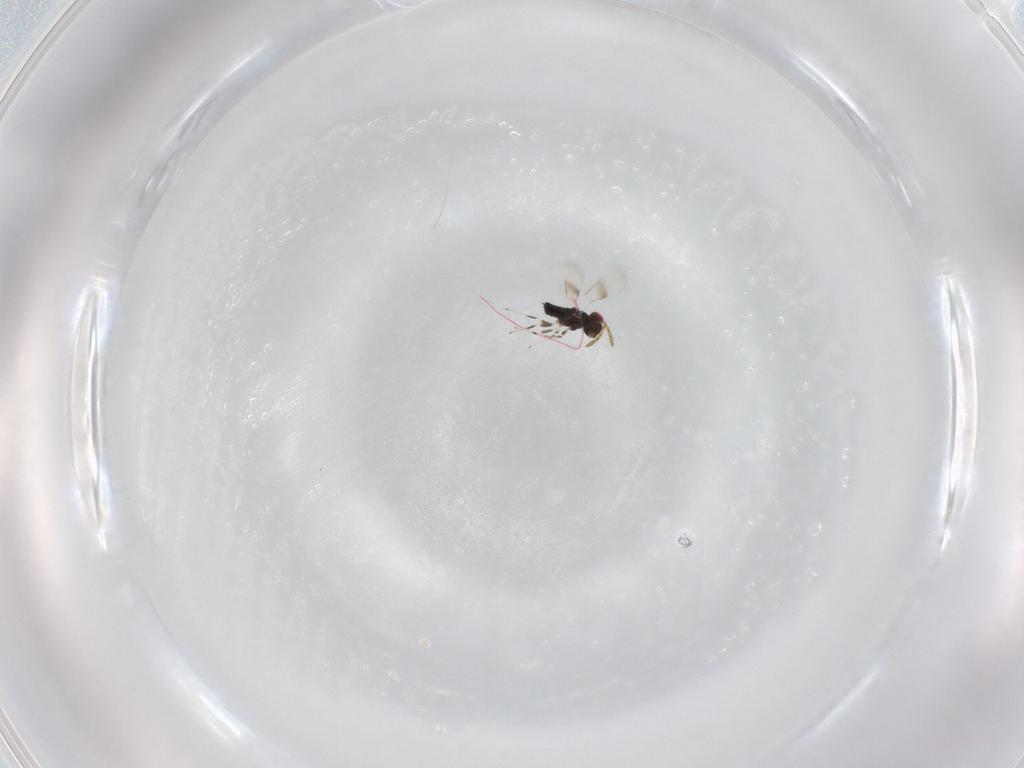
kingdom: Animalia
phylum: Arthropoda
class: Insecta
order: Hymenoptera
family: Azotidae
